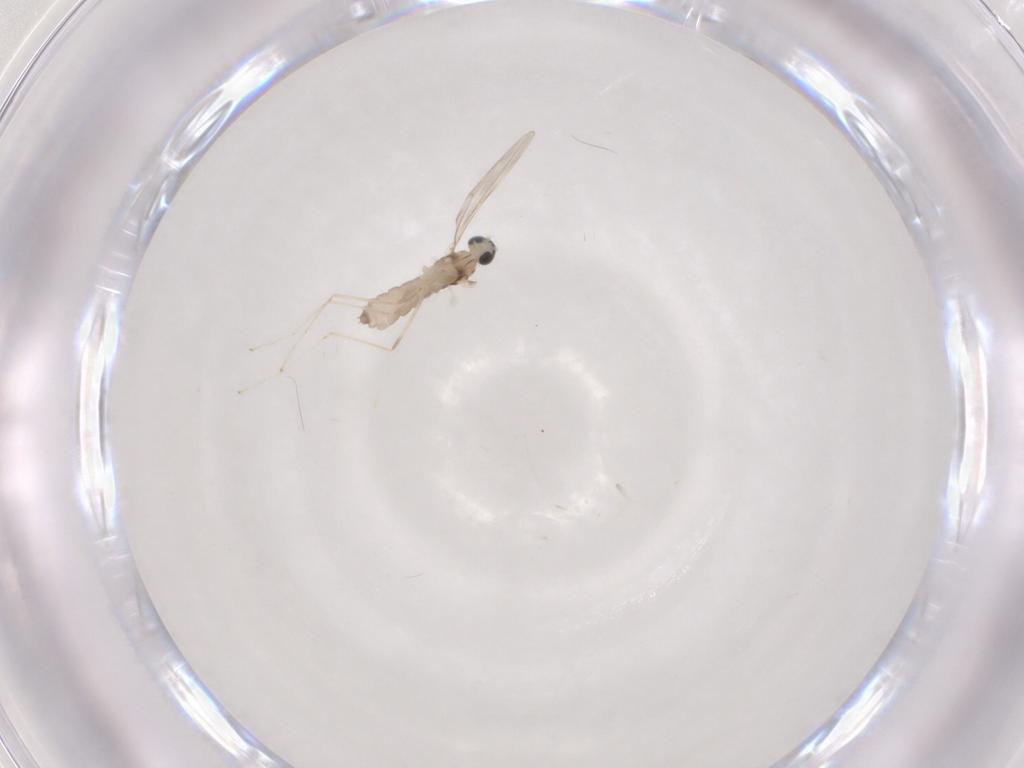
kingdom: Animalia
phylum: Arthropoda
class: Insecta
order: Diptera
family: Cecidomyiidae
